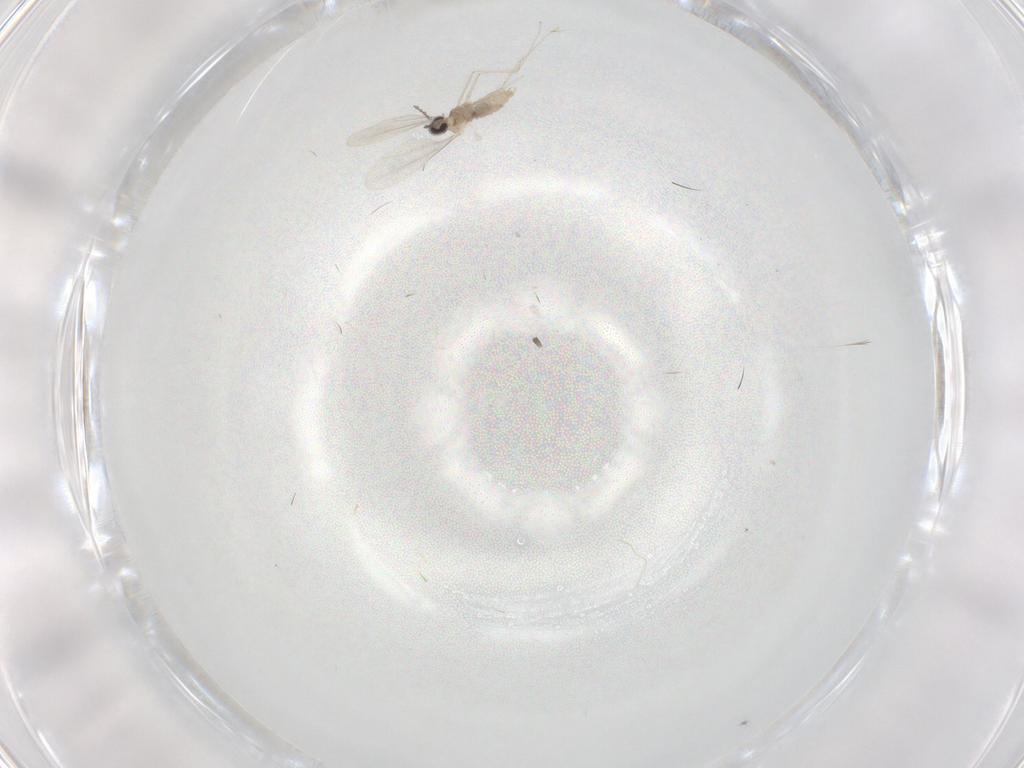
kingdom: Animalia
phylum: Arthropoda
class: Insecta
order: Diptera
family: Cecidomyiidae
